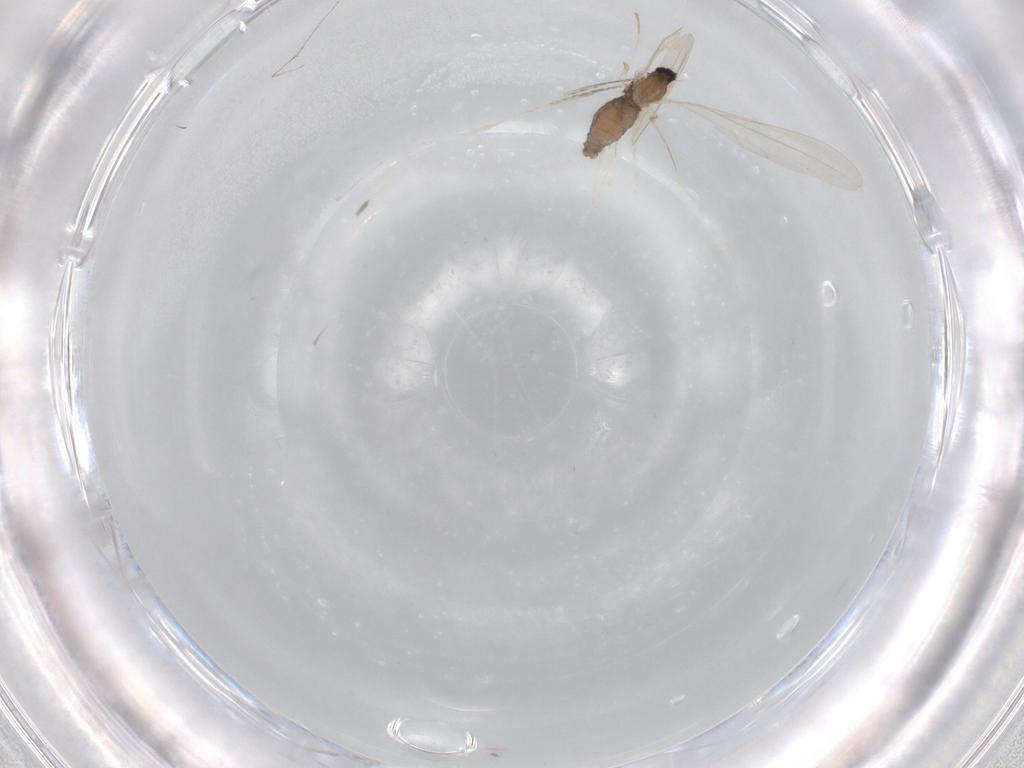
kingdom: Animalia
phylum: Arthropoda
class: Insecta
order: Diptera
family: Cecidomyiidae
